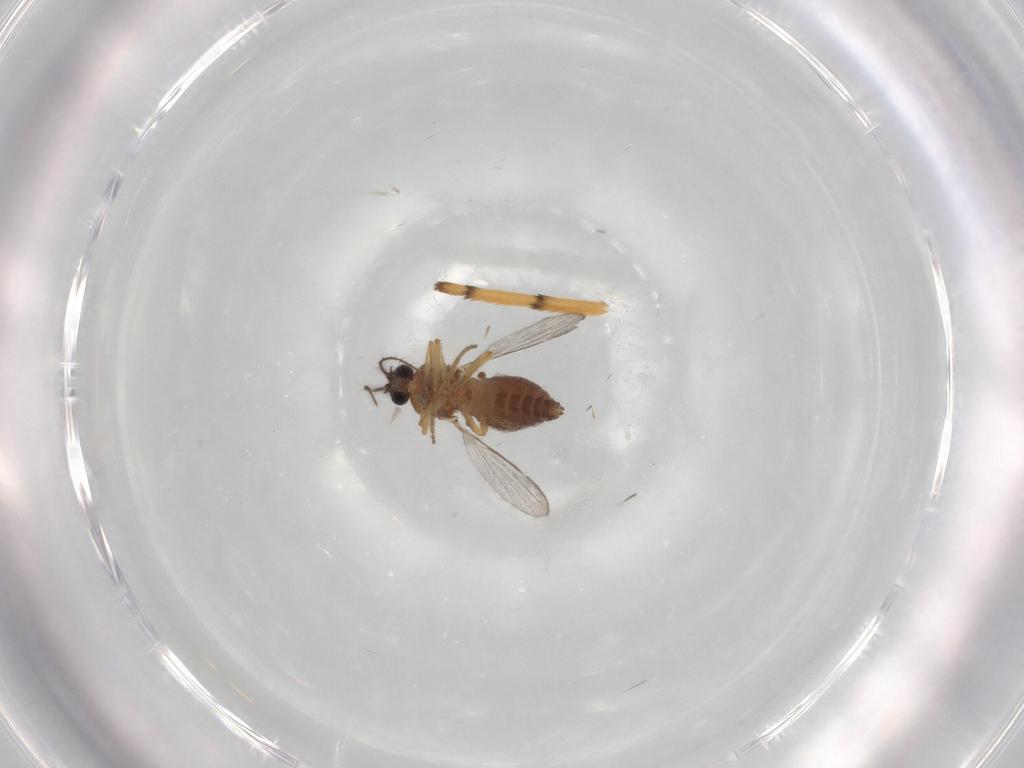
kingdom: Animalia
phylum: Arthropoda
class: Insecta
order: Diptera
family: Ceratopogonidae
